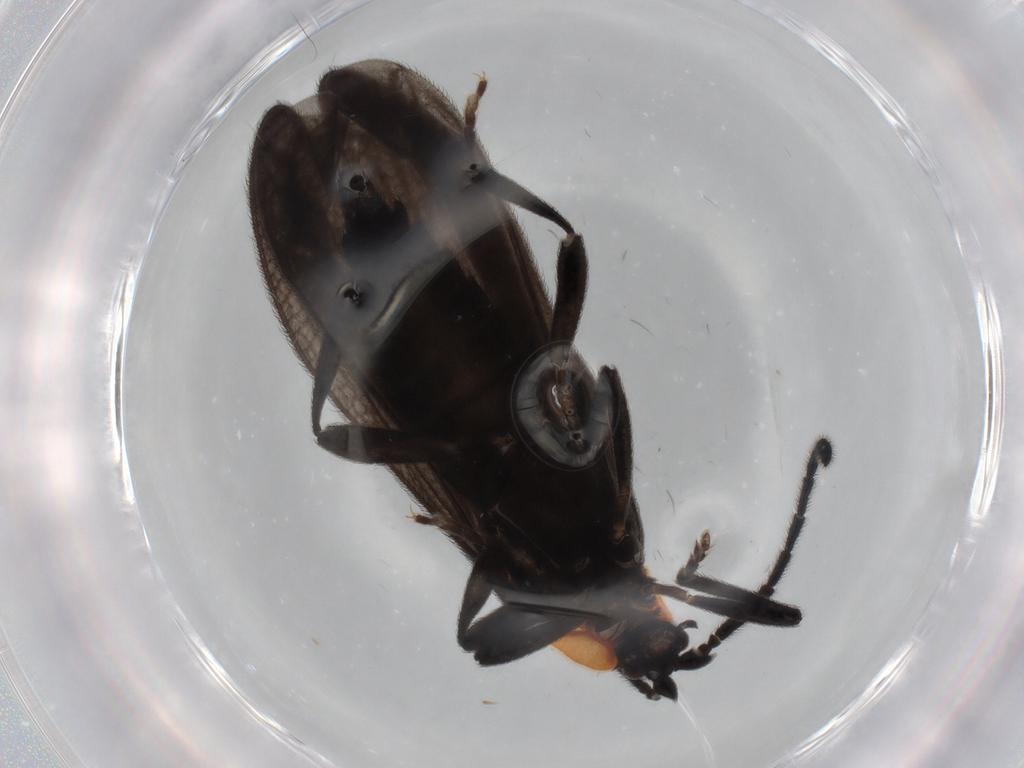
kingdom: Animalia
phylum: Arthropoda
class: Insecta
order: Coleoptera
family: Lycidae
